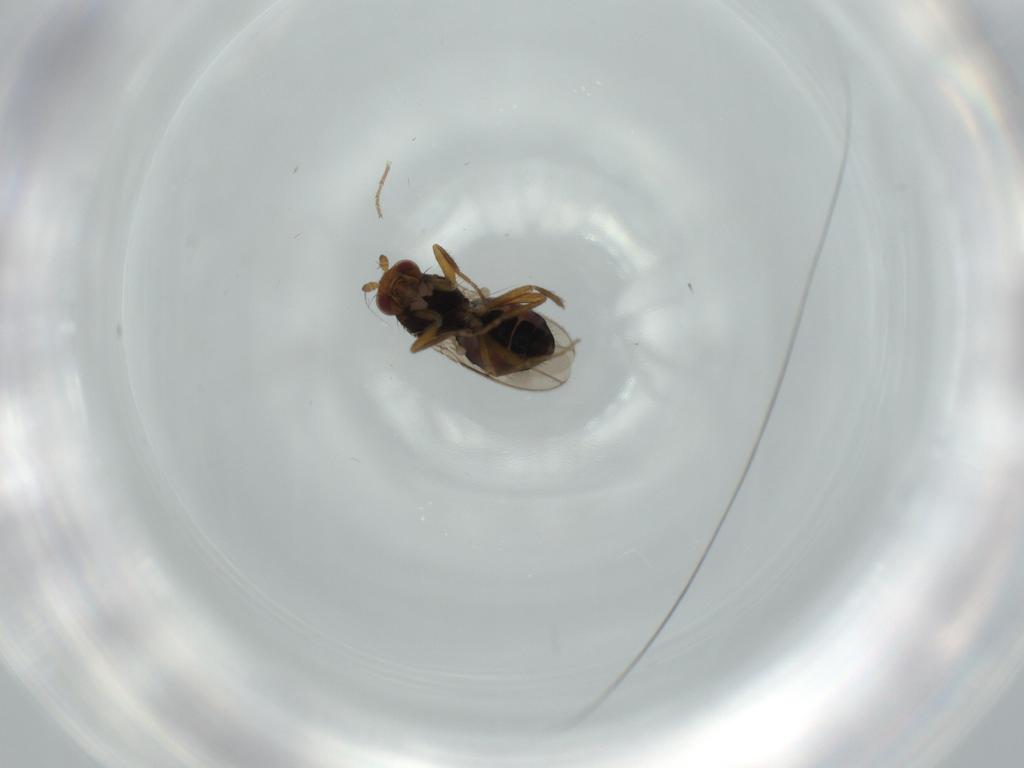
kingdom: Animalia
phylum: Arthropoda
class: Insecta
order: Diptera
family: Sphaeroceridae
